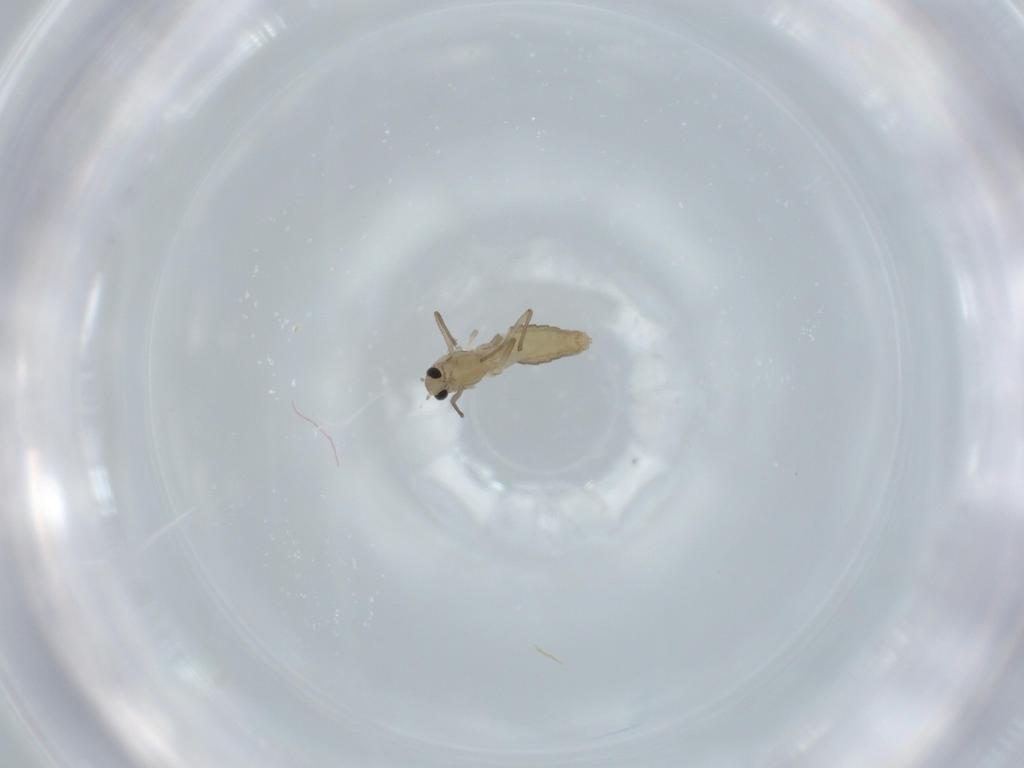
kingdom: Animalia
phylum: Arthropoda
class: Insecta
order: Diptera
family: Chironomidae
